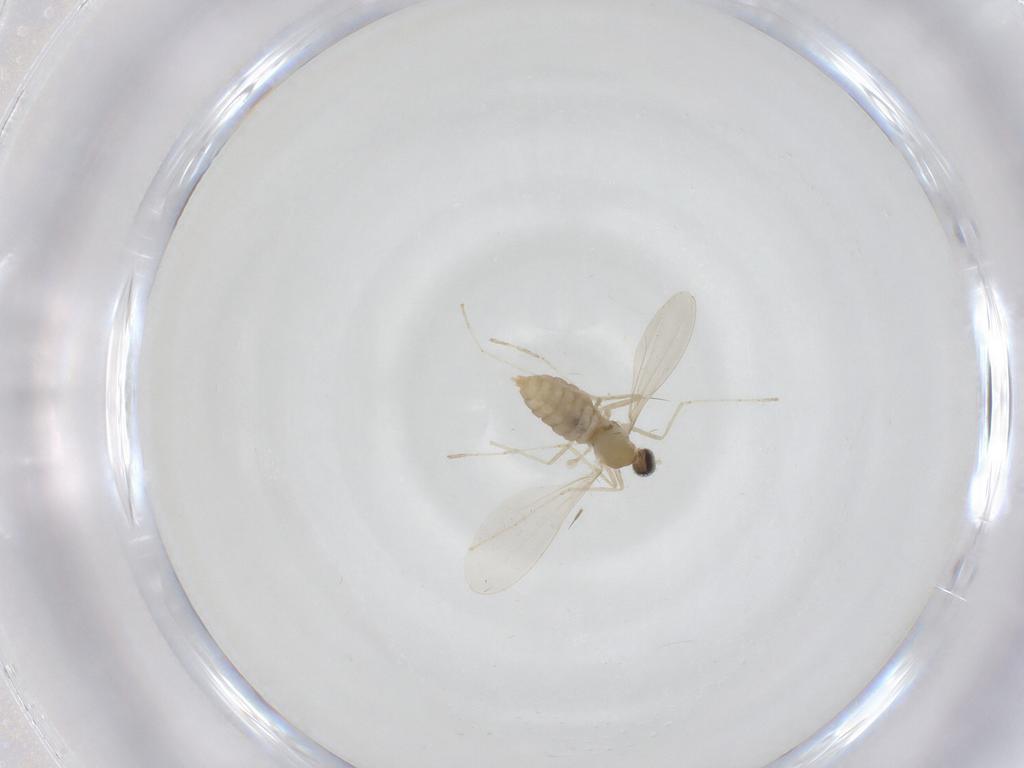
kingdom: Animalia
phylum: Arthropoda
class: Insecta
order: Diptera
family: Cecidomyiidae
